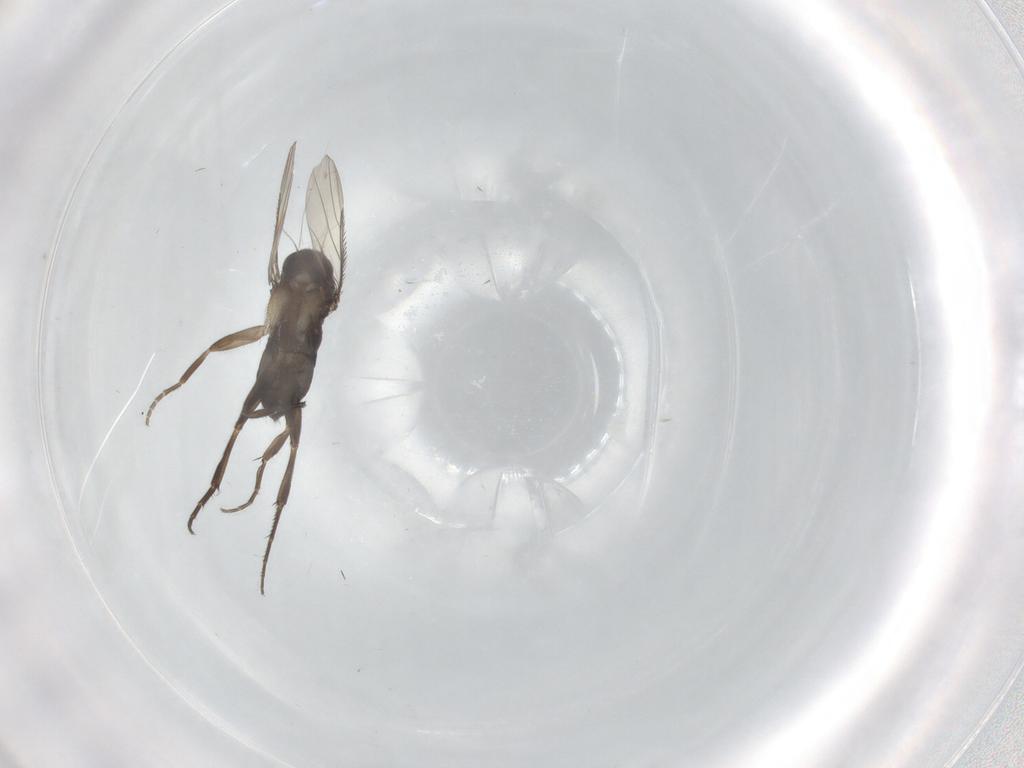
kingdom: Animalia
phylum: Arthropoda
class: Insecta
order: Diptera
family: Phoridae
